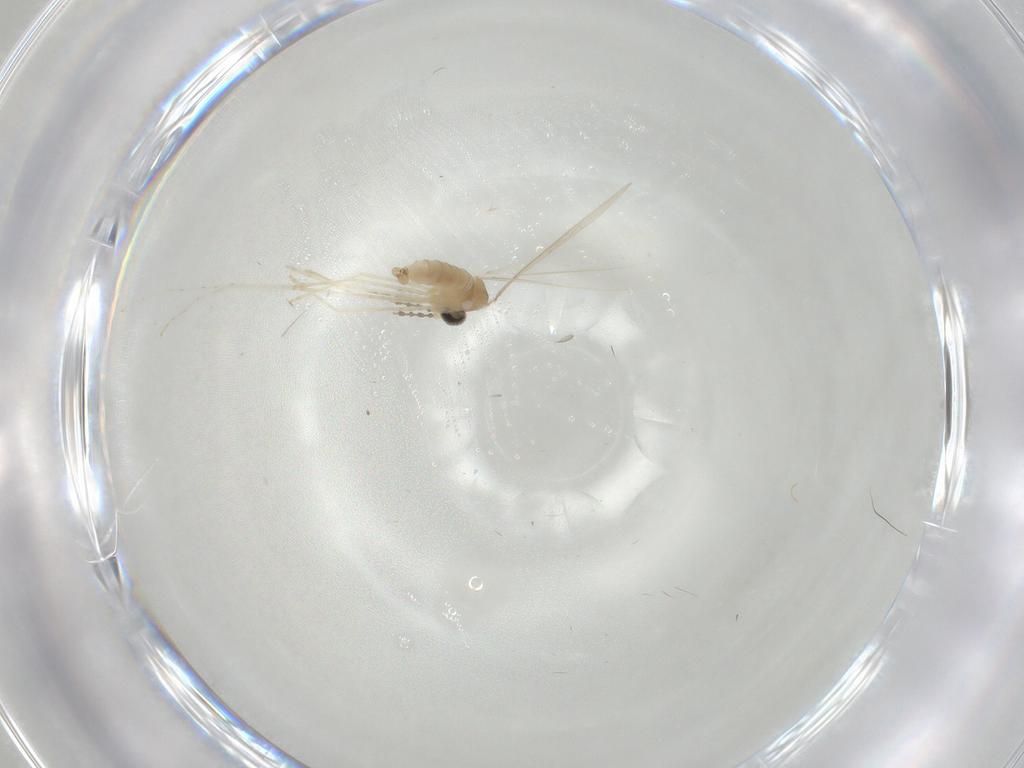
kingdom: Animalia
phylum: Arthropoda
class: Insecta
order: Diptera
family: Cecidomyiidae
